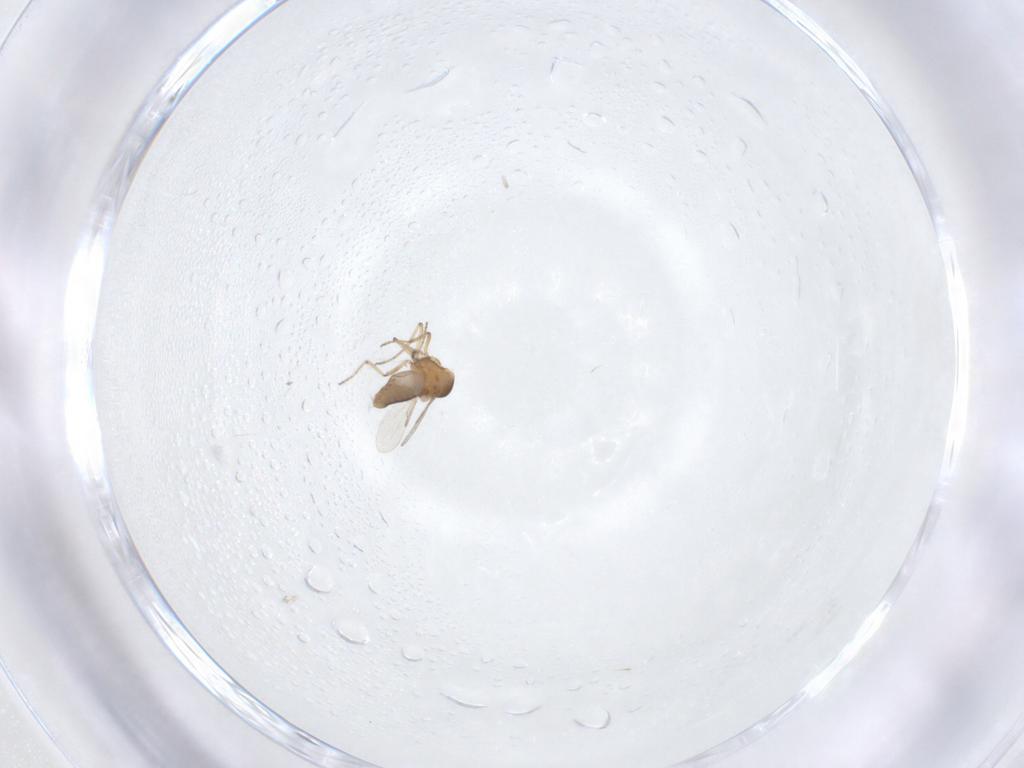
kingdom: Animalia
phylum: Arthropoda
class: Insecta
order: Diptera
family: Ceratopogonidae
